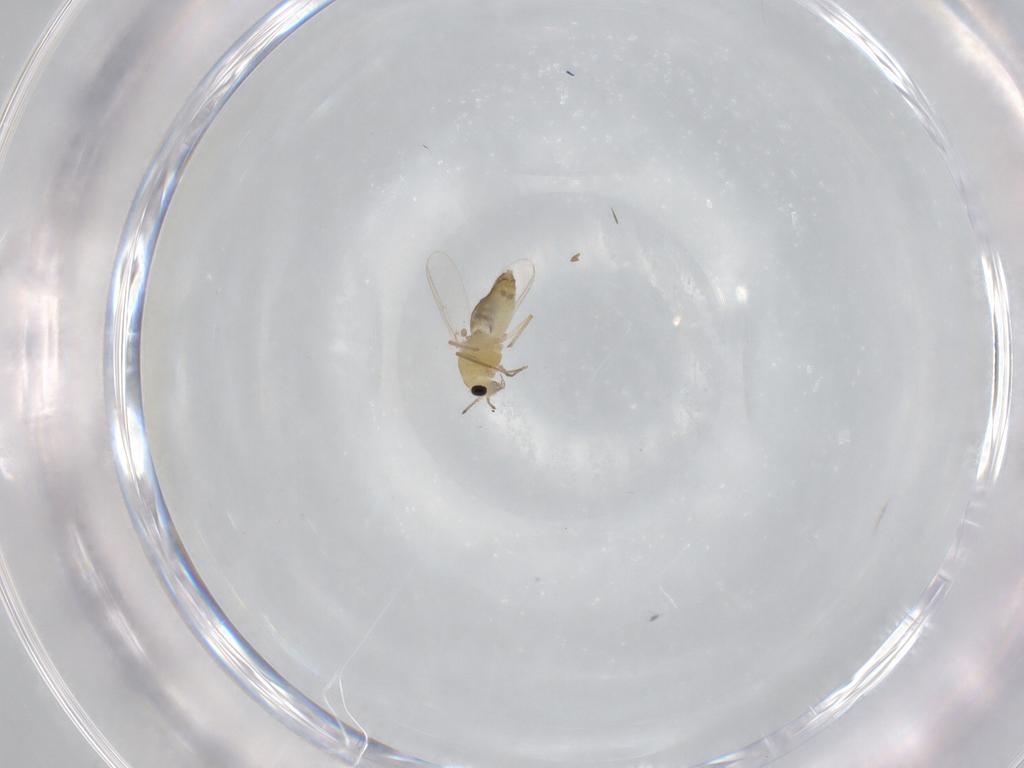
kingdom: Animalia
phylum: Arthropoda
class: Insecta
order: Diptera
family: Chironomidae
